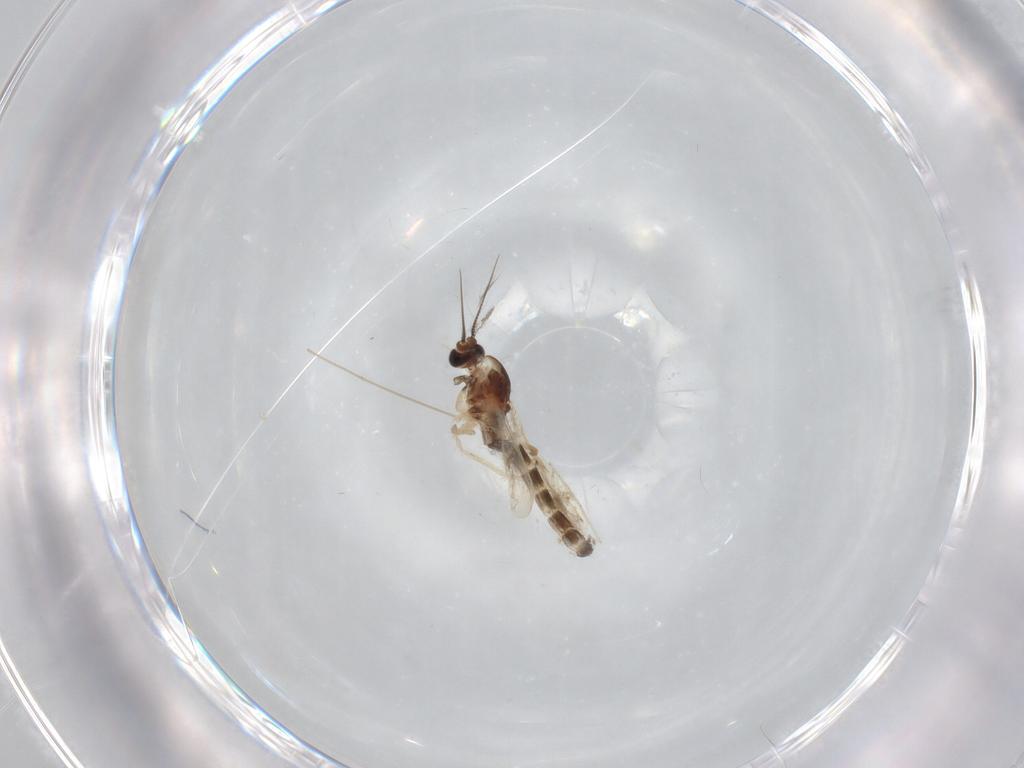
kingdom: Animalia
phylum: Arthropoda
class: Insecta
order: Diptera
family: Chironomidae
